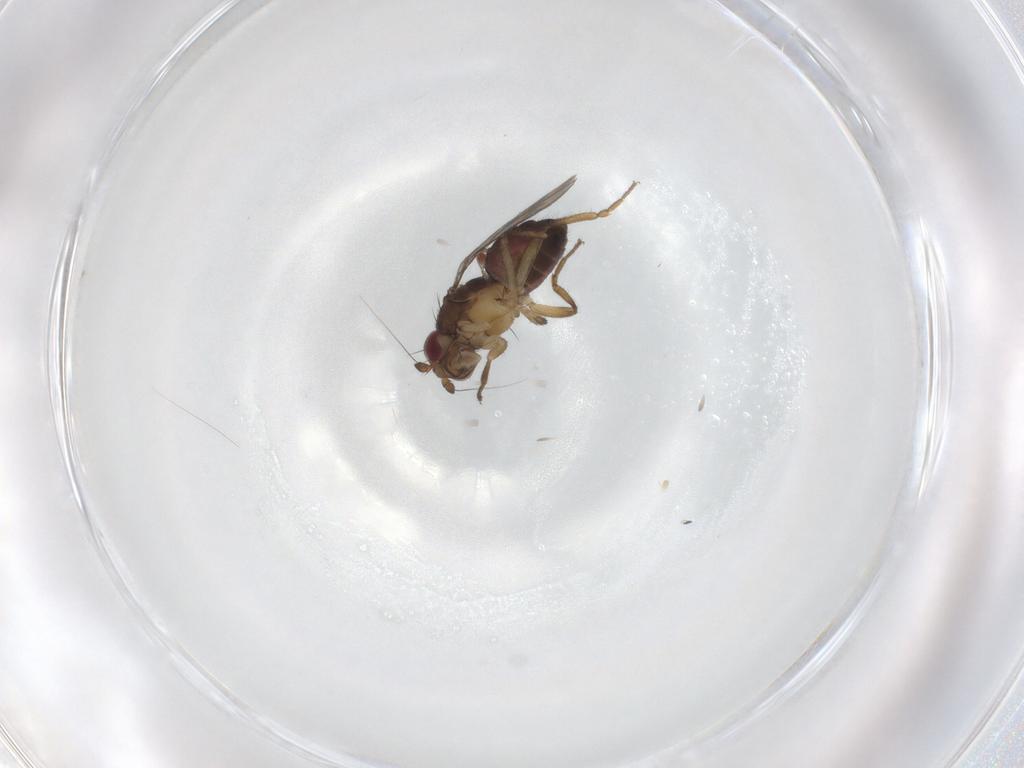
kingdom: Animalia
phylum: Arthropoda
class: Insecta
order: Diptera
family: Sphaeroceridae
